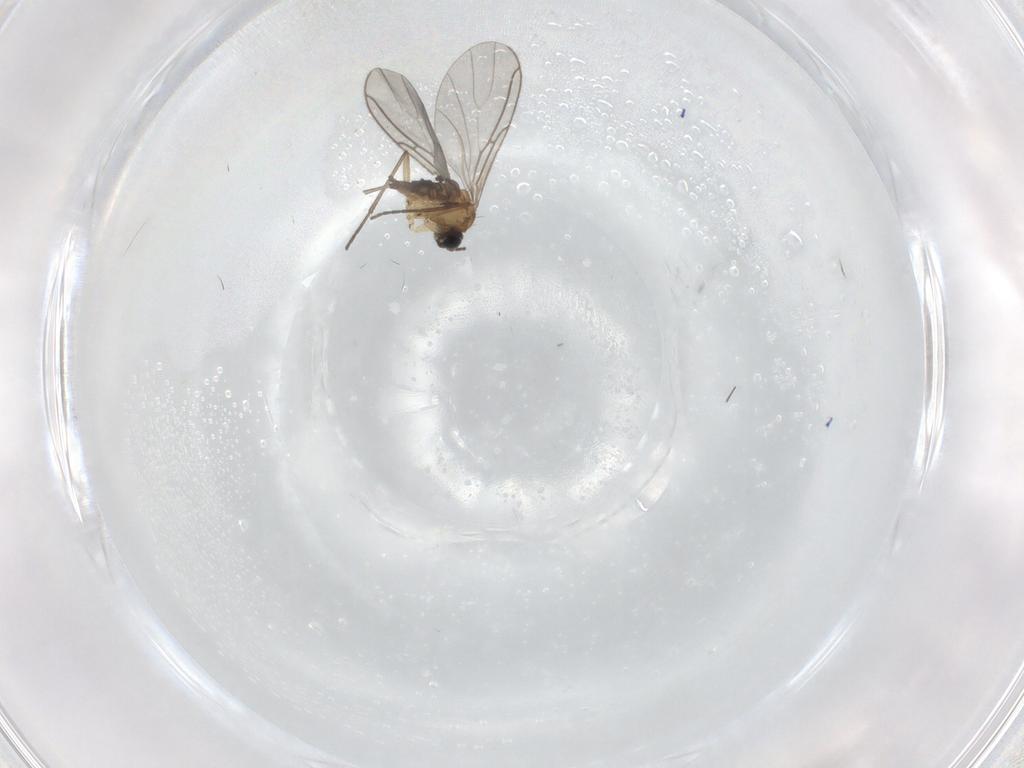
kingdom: Animalia
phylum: Arthropoda
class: Insecta
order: Diptera
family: Sciaridae
